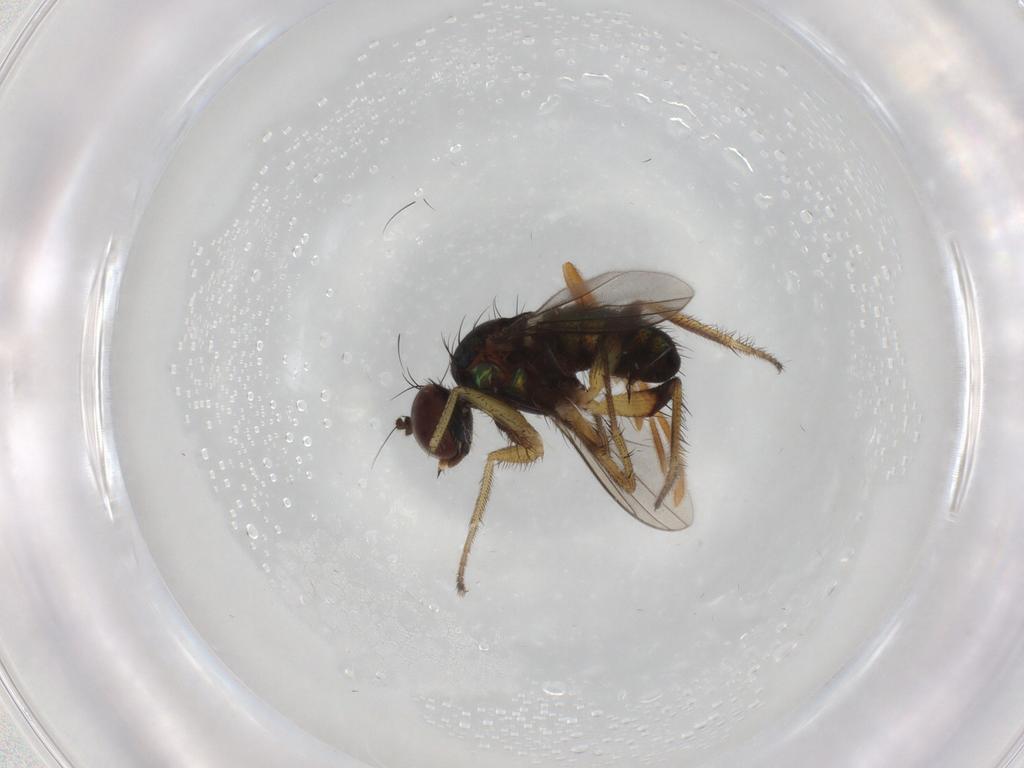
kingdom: Animalia
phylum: Arthropoda
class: Insecta
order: Diptera
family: Dolichopodidae
